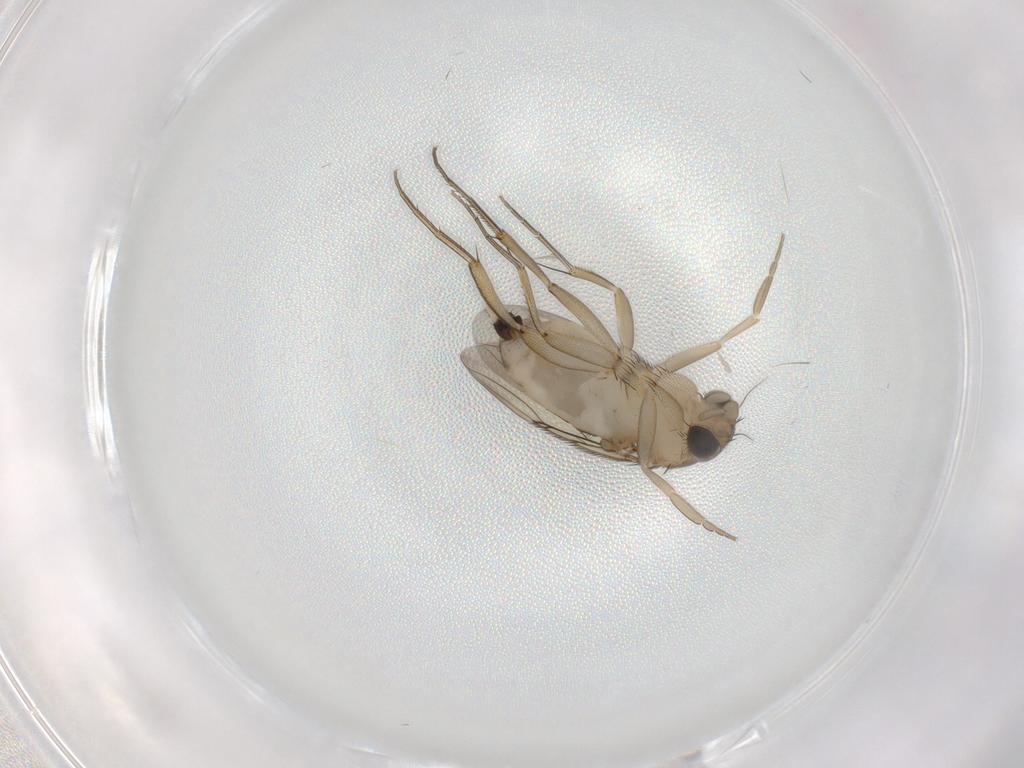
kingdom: Animalia
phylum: Arthropoda
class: Insecta
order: Diptera
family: Phoridae
